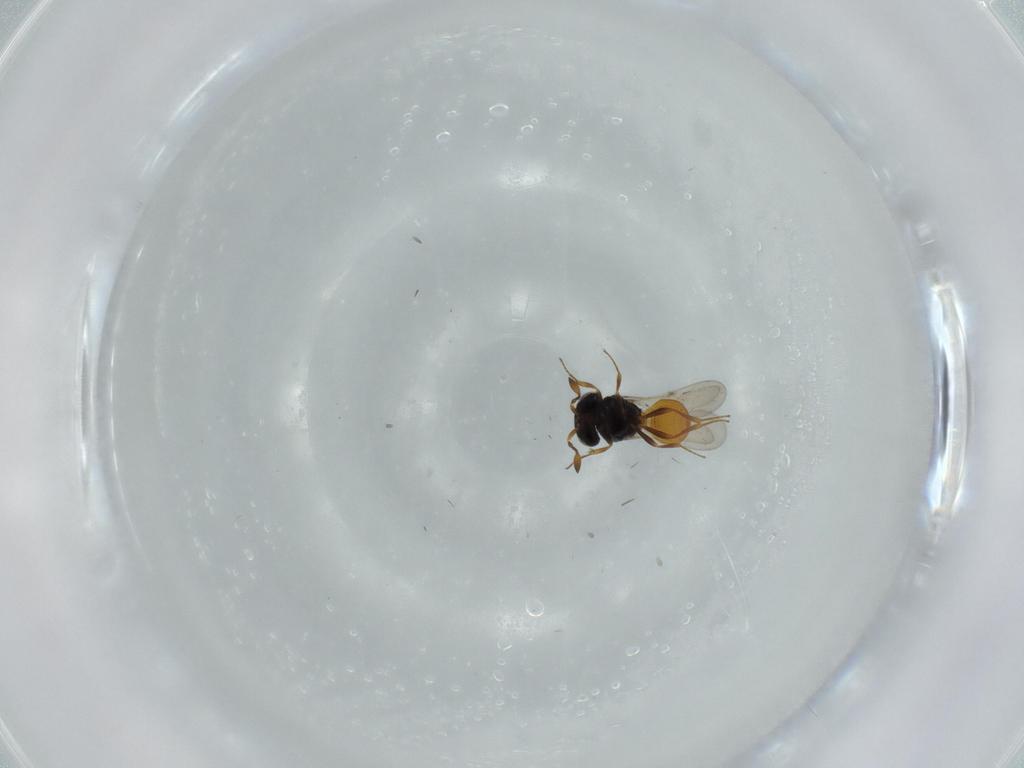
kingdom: Animalia
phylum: Arthropoda
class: Insecta
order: Hymenoptera
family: Scelionidae
